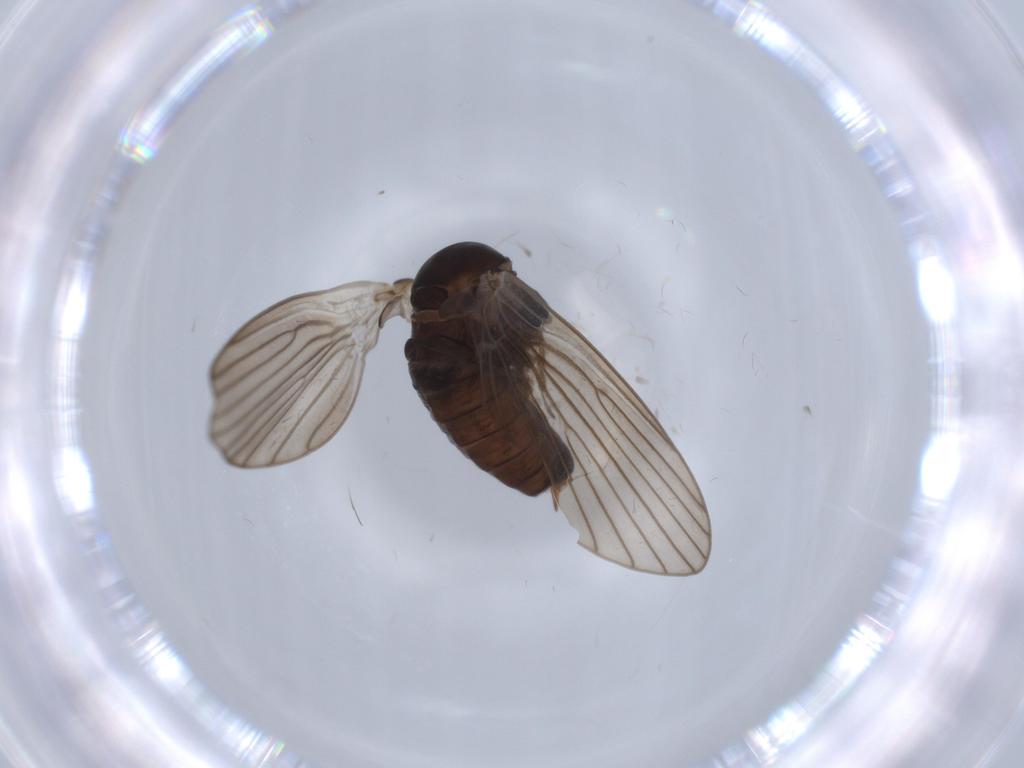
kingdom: Animalia
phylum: Arthropoda
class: Insecta
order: Diptera
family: Psychodidae
